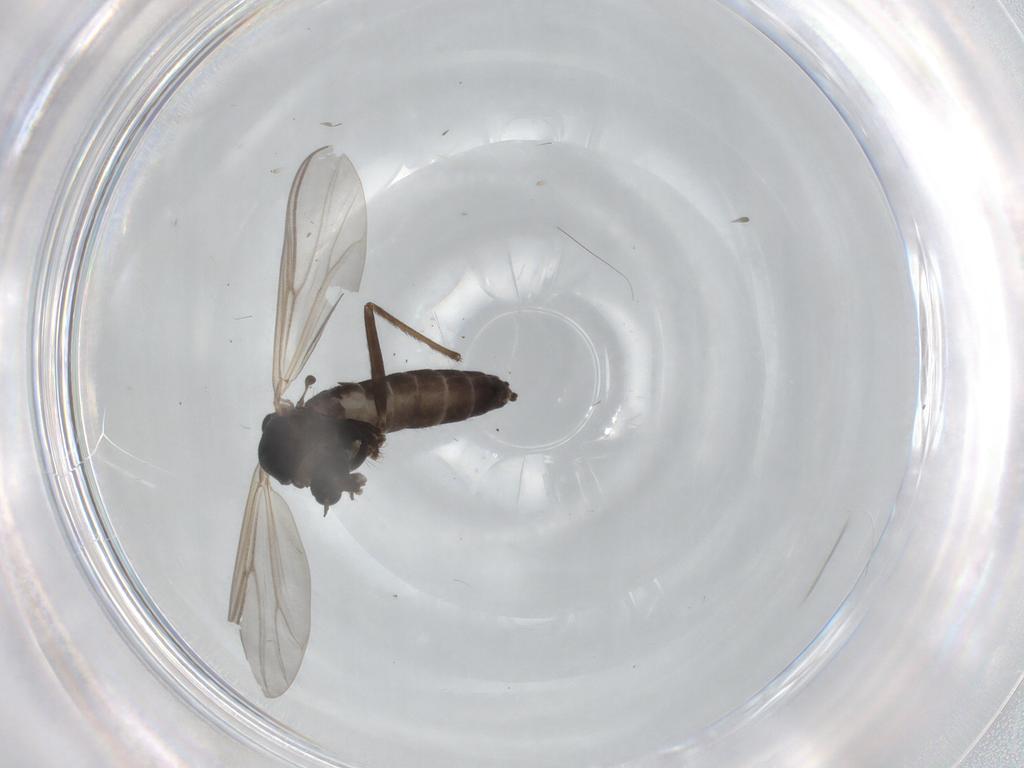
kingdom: Animalia
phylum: Arthropoda
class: Insecta
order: Diptera
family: Chironomidae
